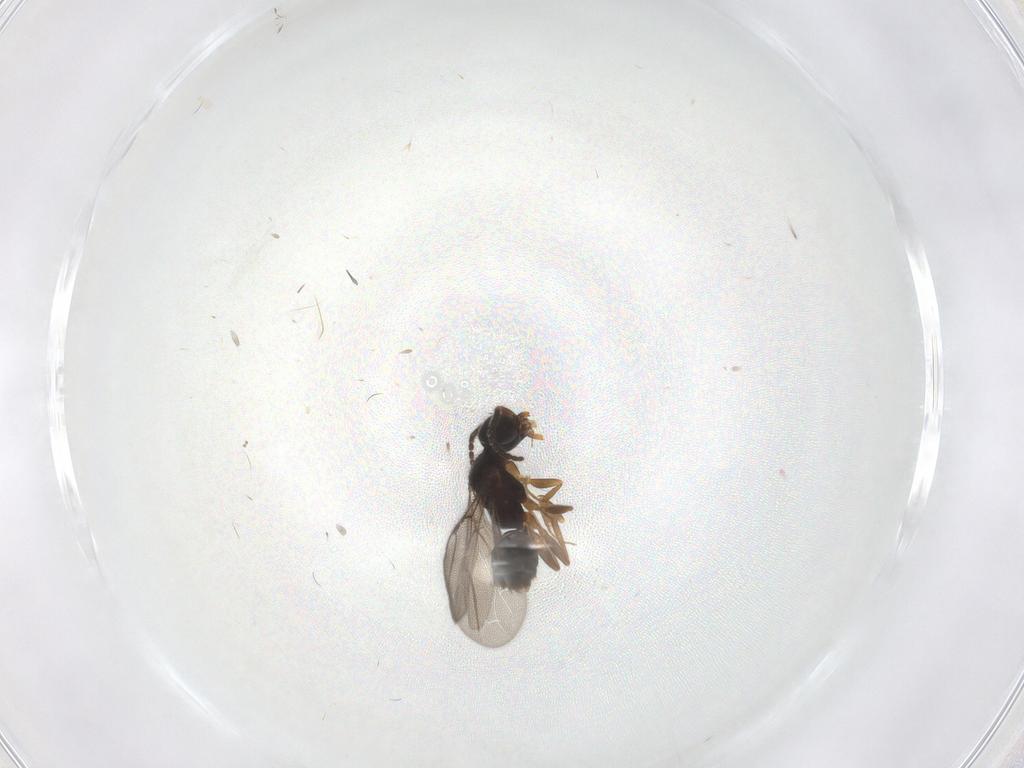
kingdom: Animalia
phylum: Arthropoda
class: Insecta
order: Hymenoptera
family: Bethylidae
